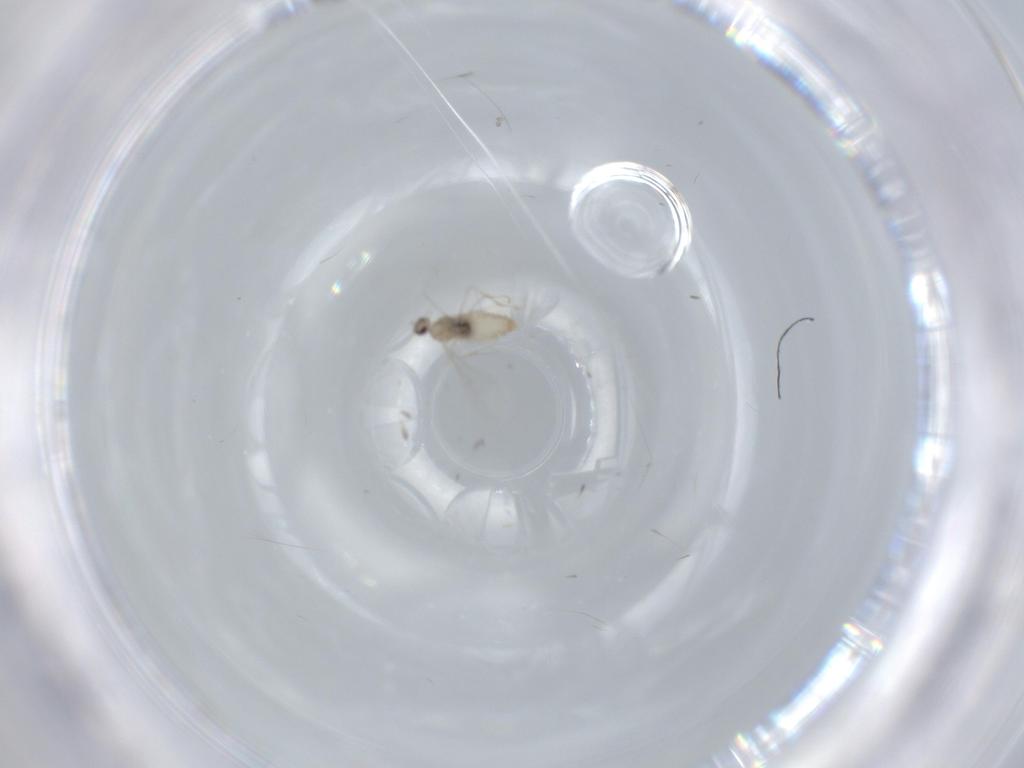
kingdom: Animalia
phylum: Arthropoda
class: Insecta
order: Diptera
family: Cecidomyiidae
